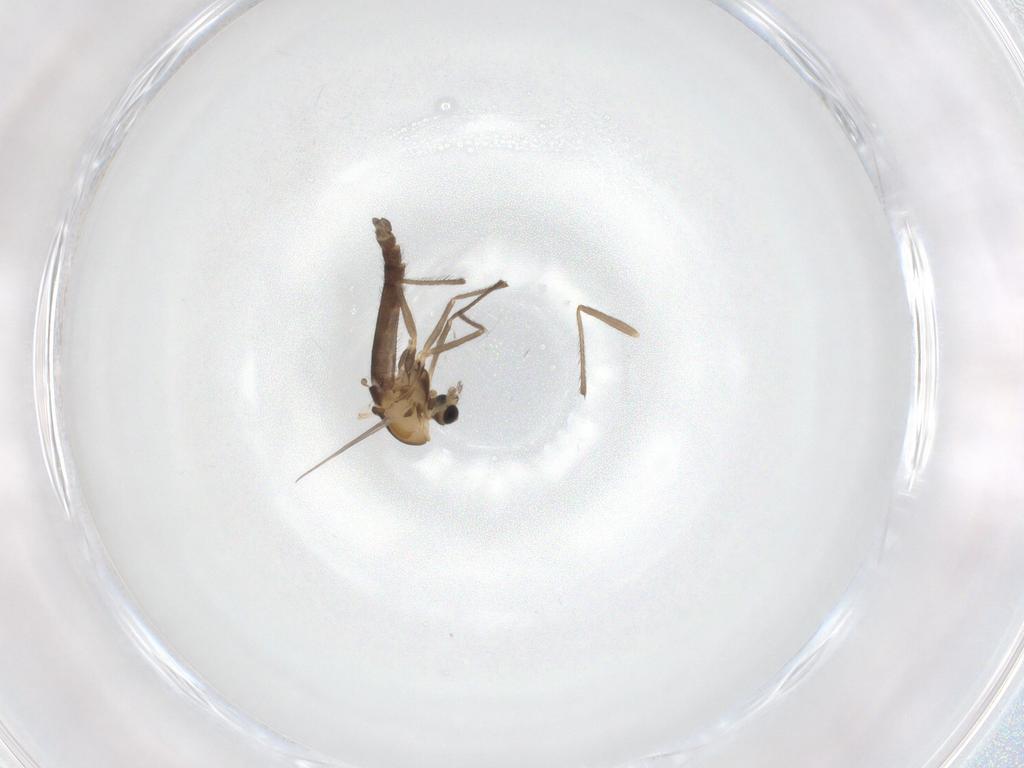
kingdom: Animalia
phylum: Arthropoda
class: Insecta
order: Diptera
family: Chironomidae
